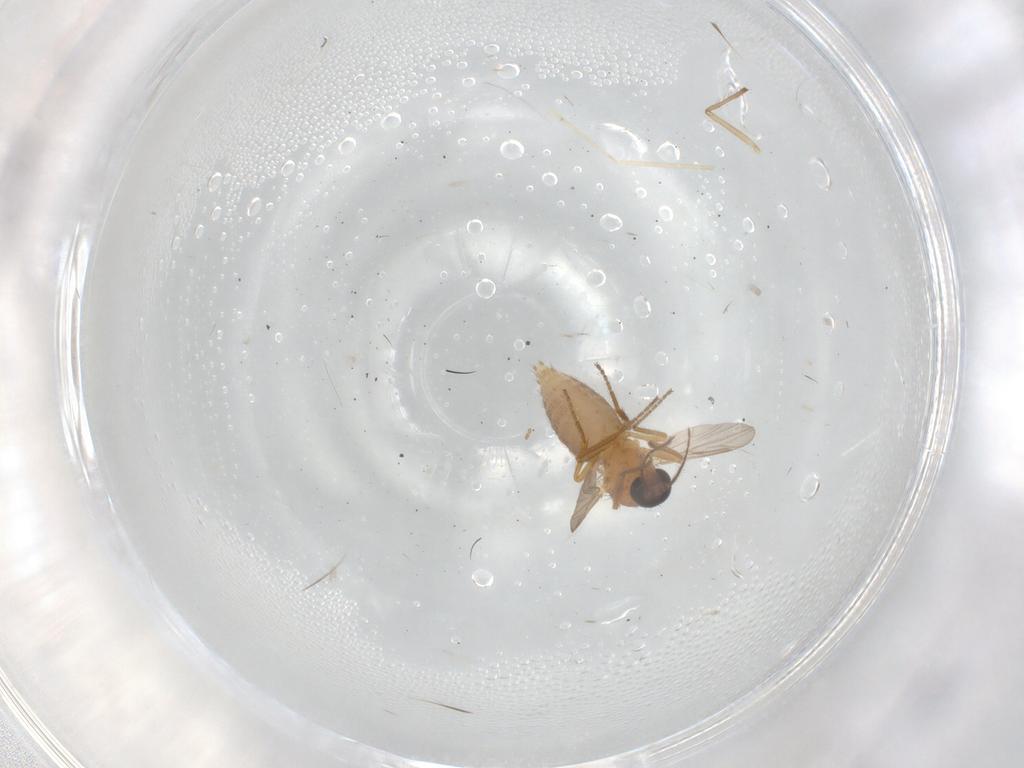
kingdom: Animalia
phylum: Arthropoda
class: Insecta
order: Diptera
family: Ceratopogonidae
